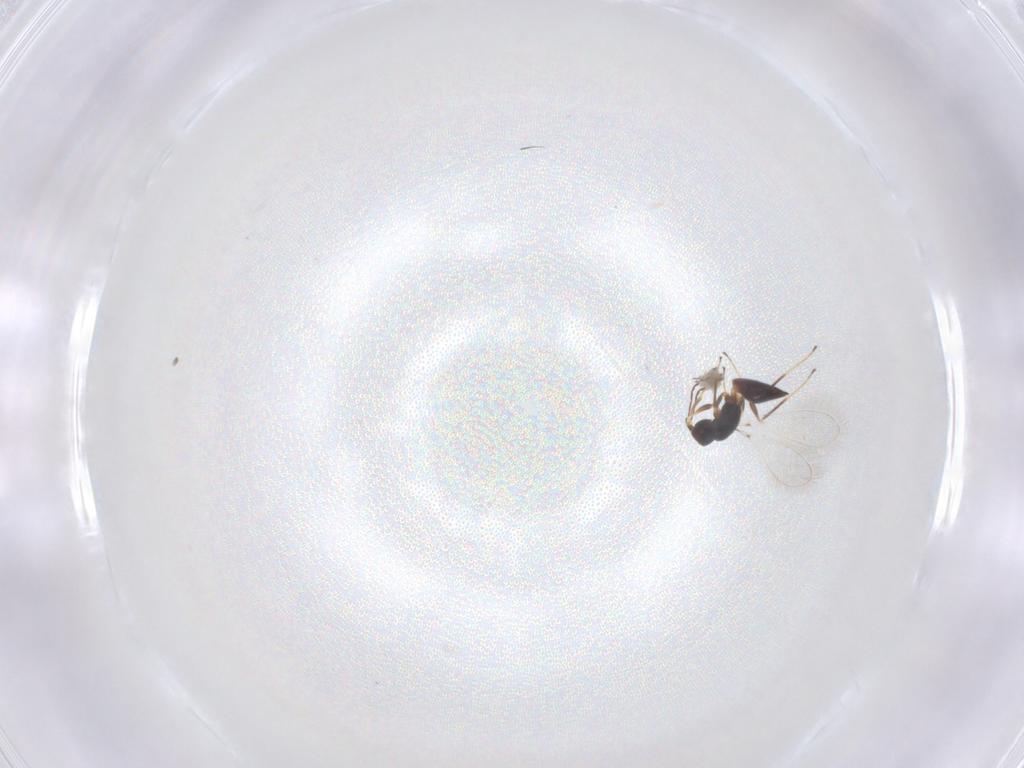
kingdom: Animalia
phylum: Arthropoda
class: Insecta
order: Hymenoptera
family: Mymaridae
